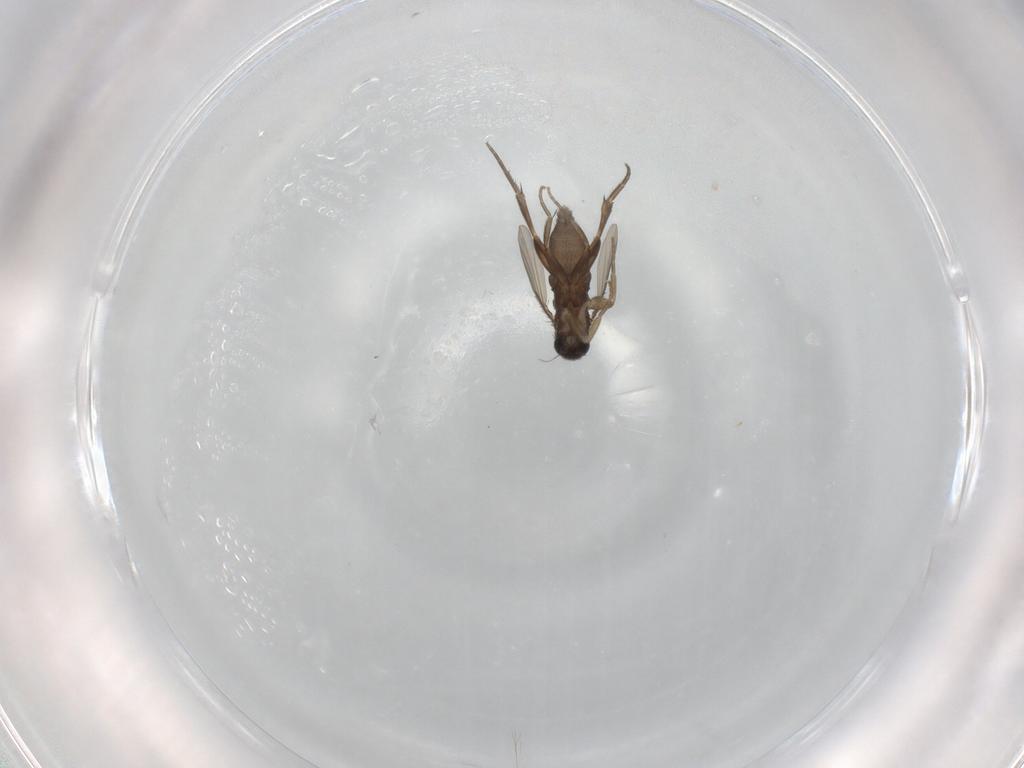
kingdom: Animalia
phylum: Arthropoda
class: Insecta
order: Diptera
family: Phoridae
